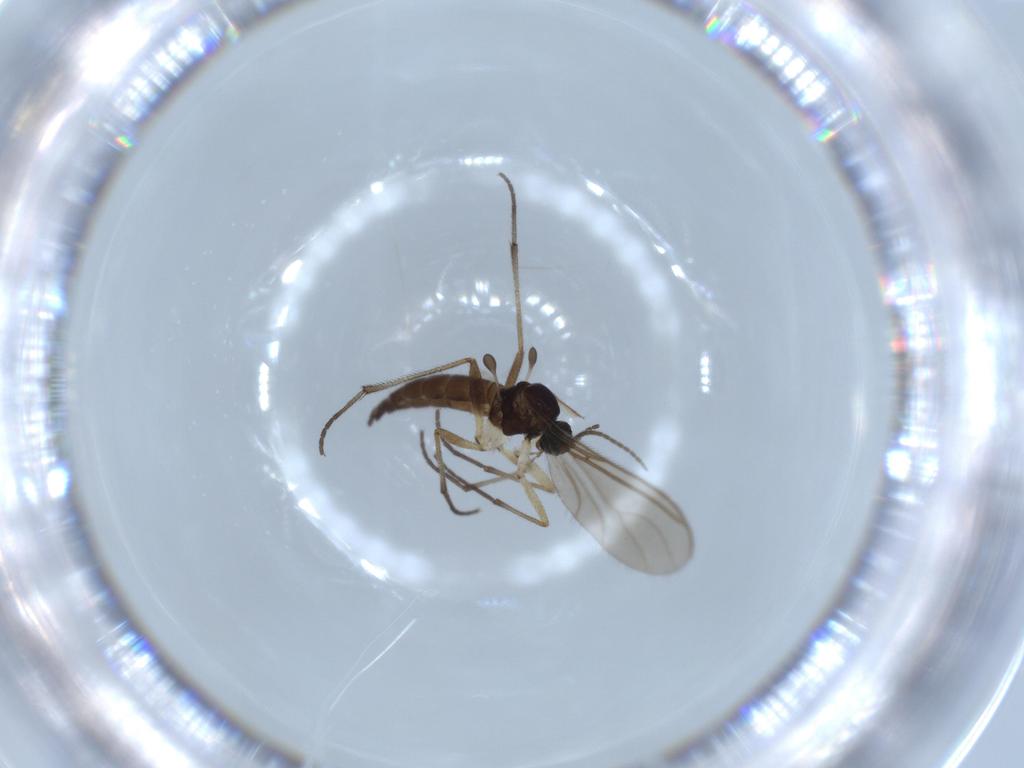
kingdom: Animalia
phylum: Arthropoda
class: Insecta
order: Diptera
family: Sciaridae
